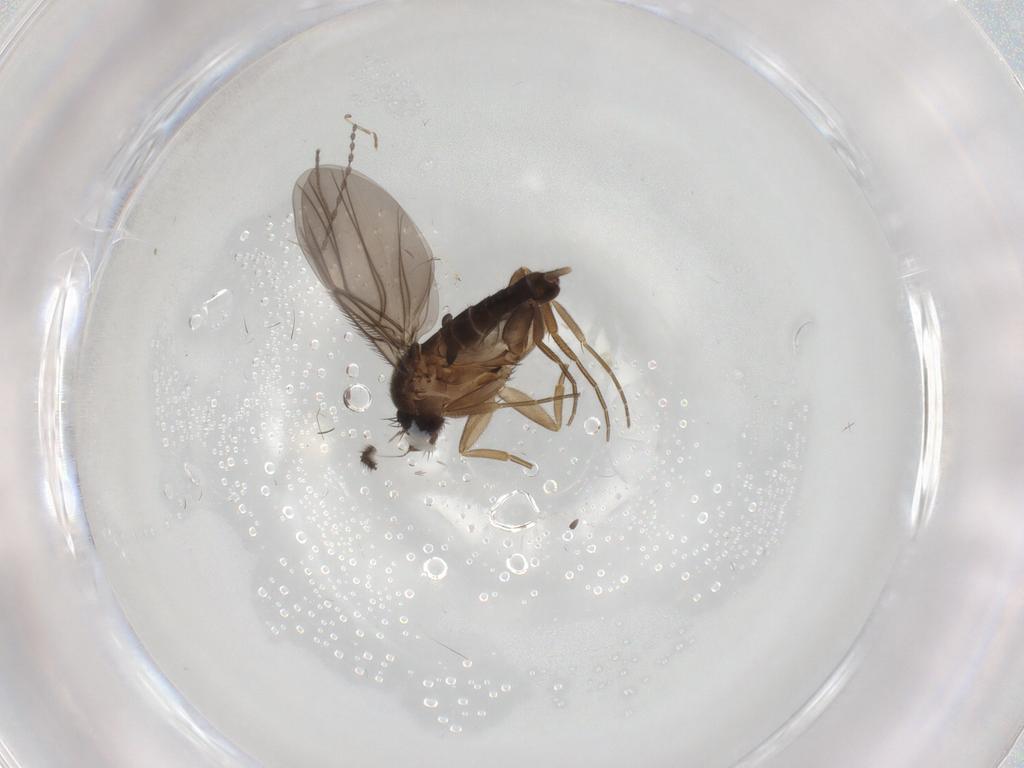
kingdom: Animalia
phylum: Arthropoda
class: Insecta
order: Diptera
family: Cecidomyiidae
